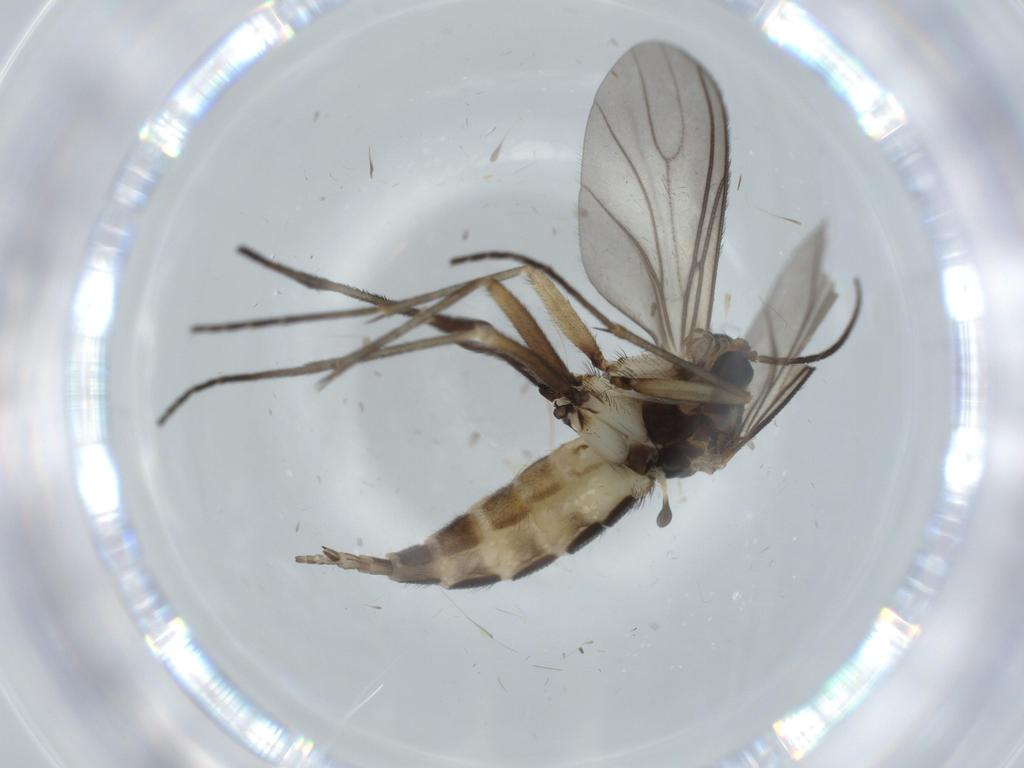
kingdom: Animalia
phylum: Arthropoda
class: Insecta
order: Diptera
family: Sciaridae
